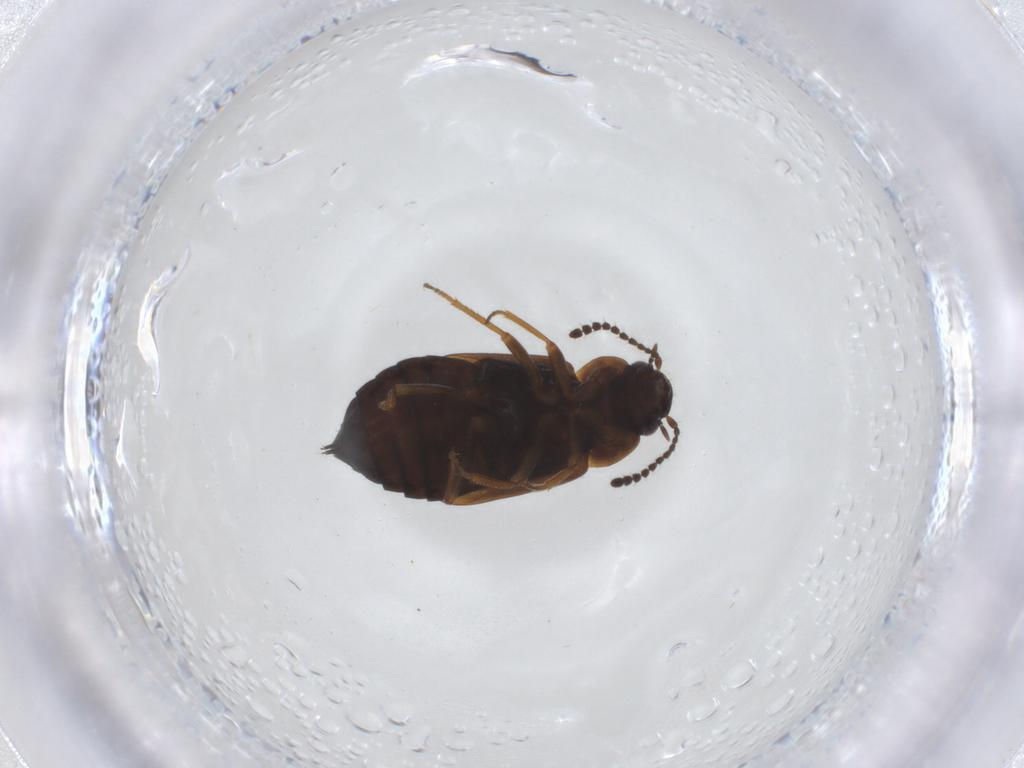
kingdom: Animalia
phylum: Arthropoda
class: Insecta
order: Coleoptera
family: Staphylinidae
